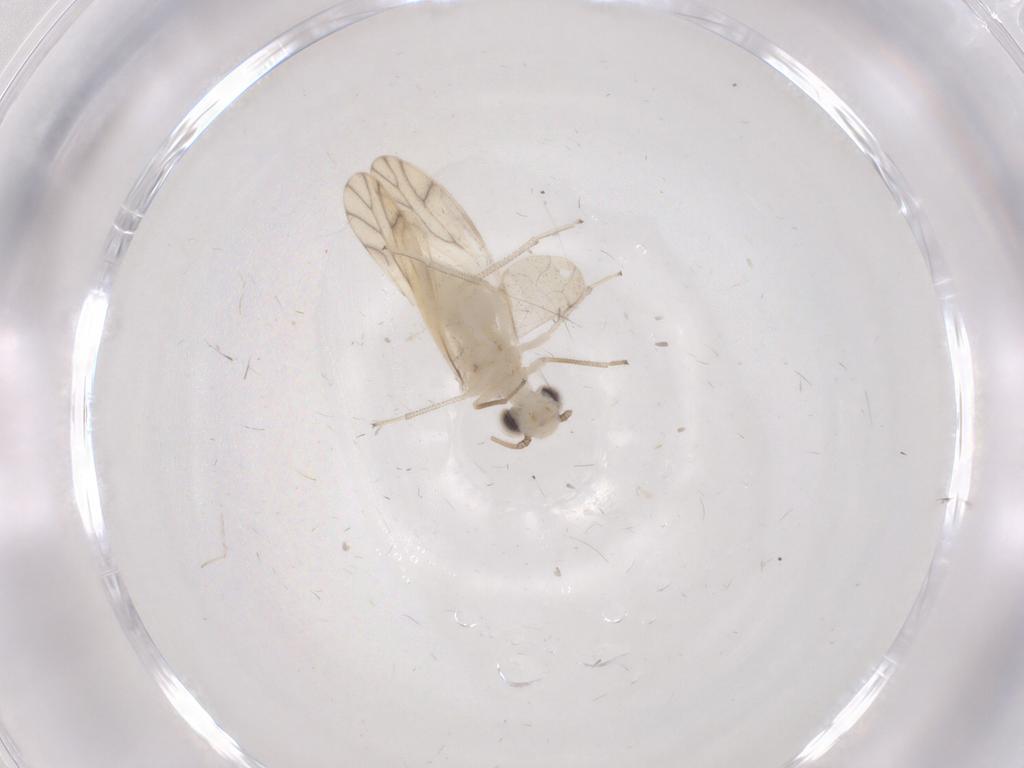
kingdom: Animalia
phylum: Arthropoda
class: Insecta
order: Psocodea
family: Caeciliusidae
